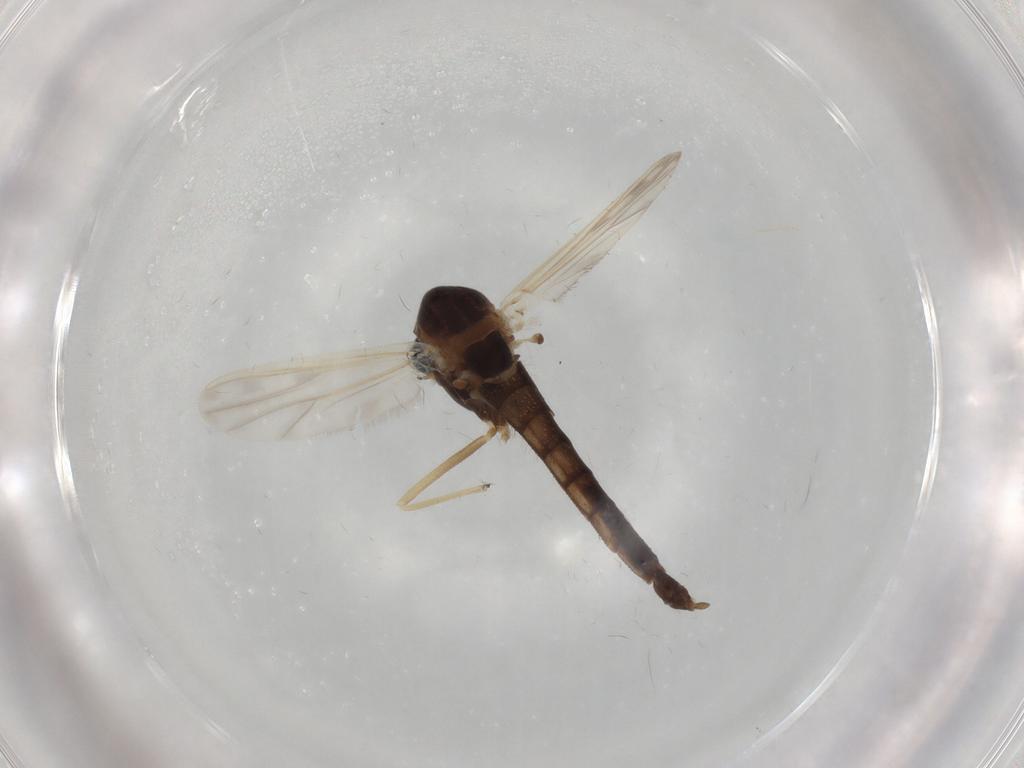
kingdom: Animalia
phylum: Arthropoda
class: Insecta
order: Diptera
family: Chironomidae
